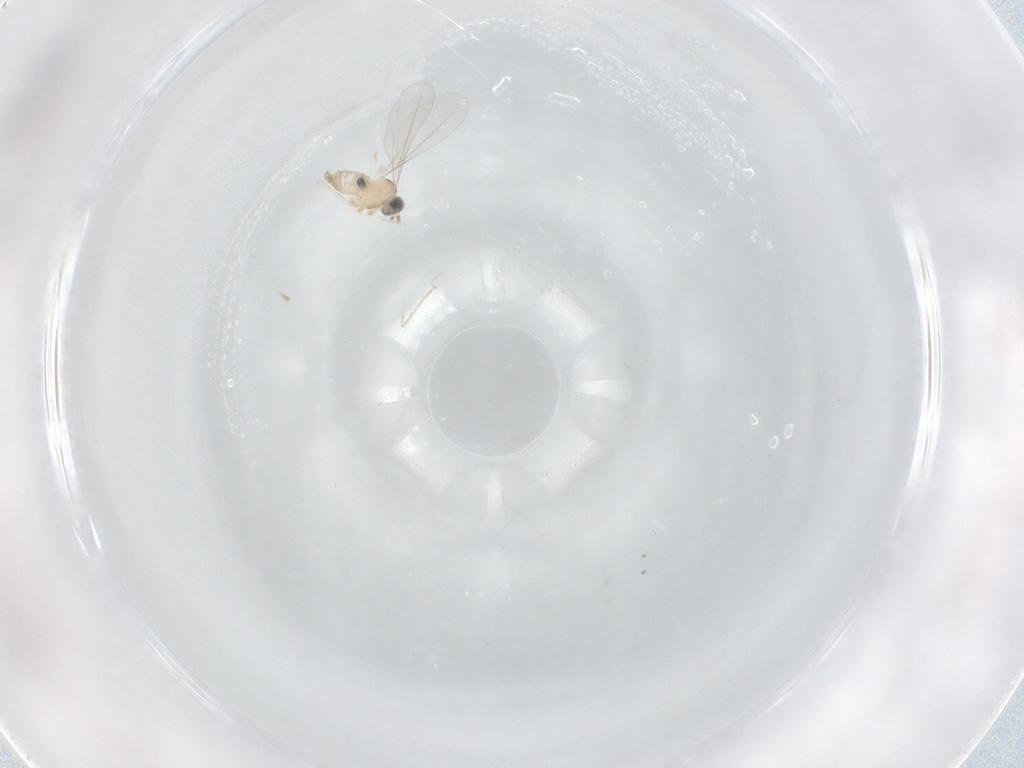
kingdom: Animalia
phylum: Arthropoda
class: Insecta
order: Diptera
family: Cecidomyiidae
